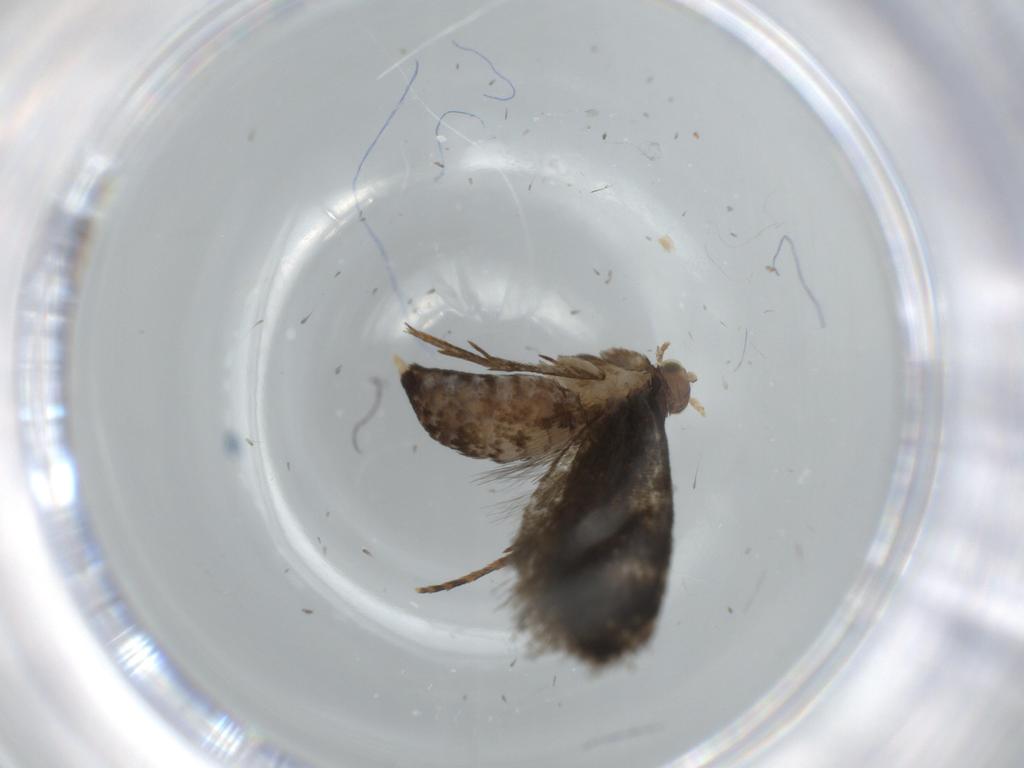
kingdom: Animalia
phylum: Arthropoda
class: Insecta
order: Lepidoptera
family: Tineidae
